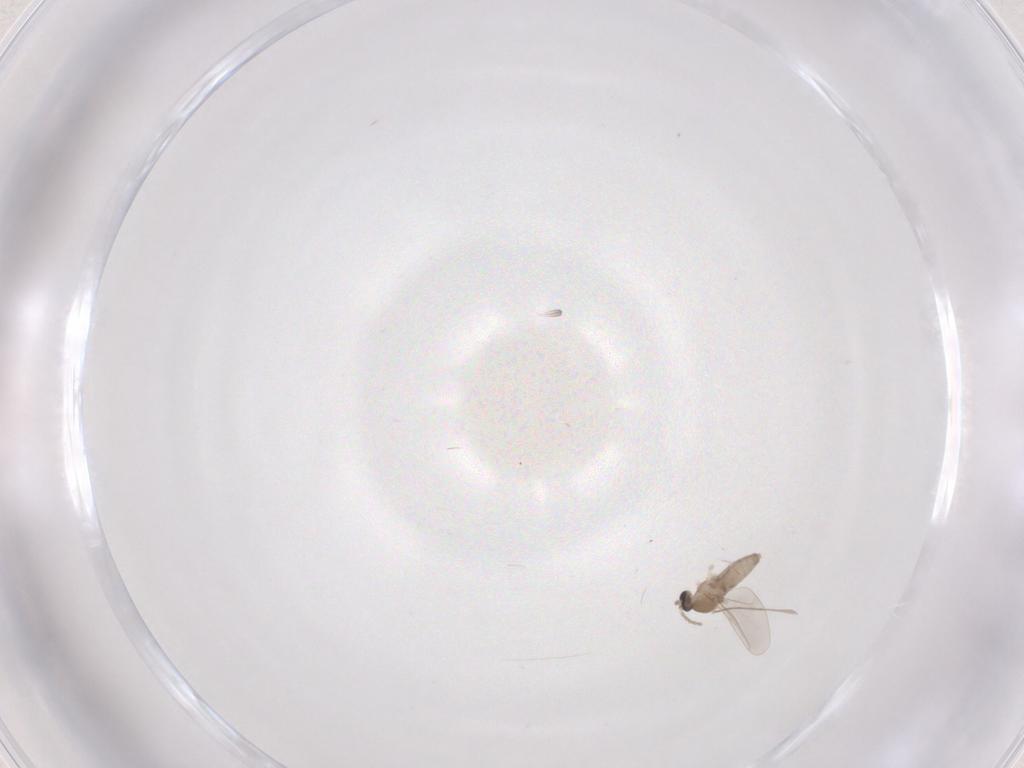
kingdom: Animalia
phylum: Arthropoda
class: Insecta
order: Diptera
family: Cecidomyiidae
